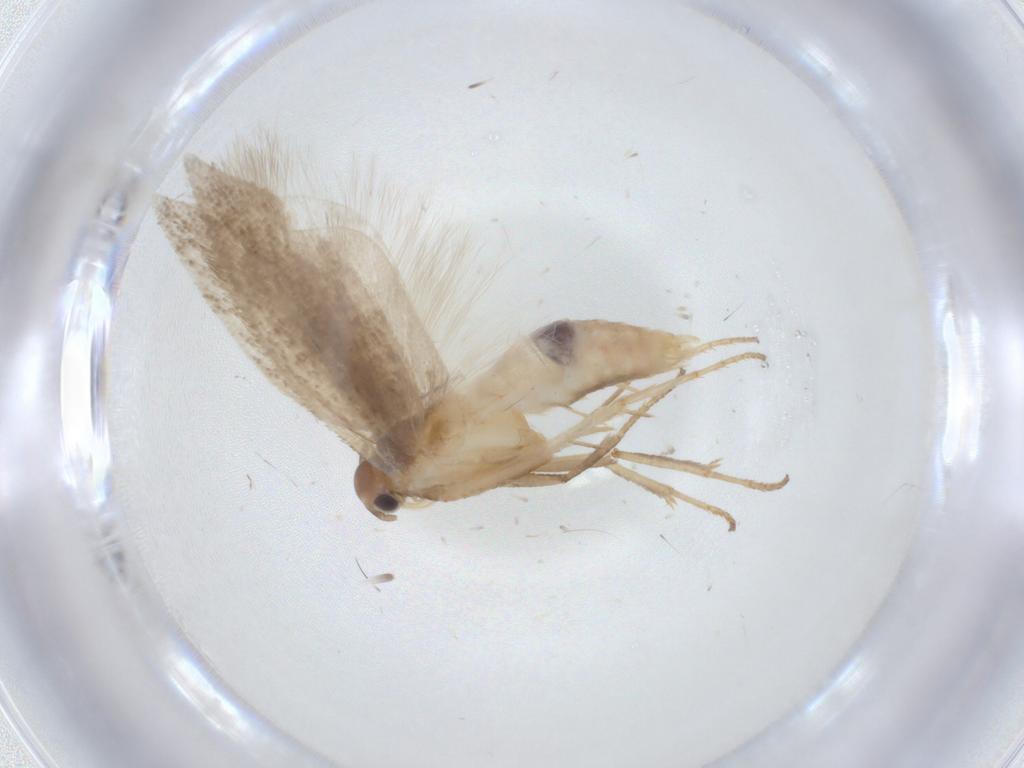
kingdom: Animalia
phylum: Arthropoda
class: Insecta
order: Lepidoptera
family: Gelechiidae
